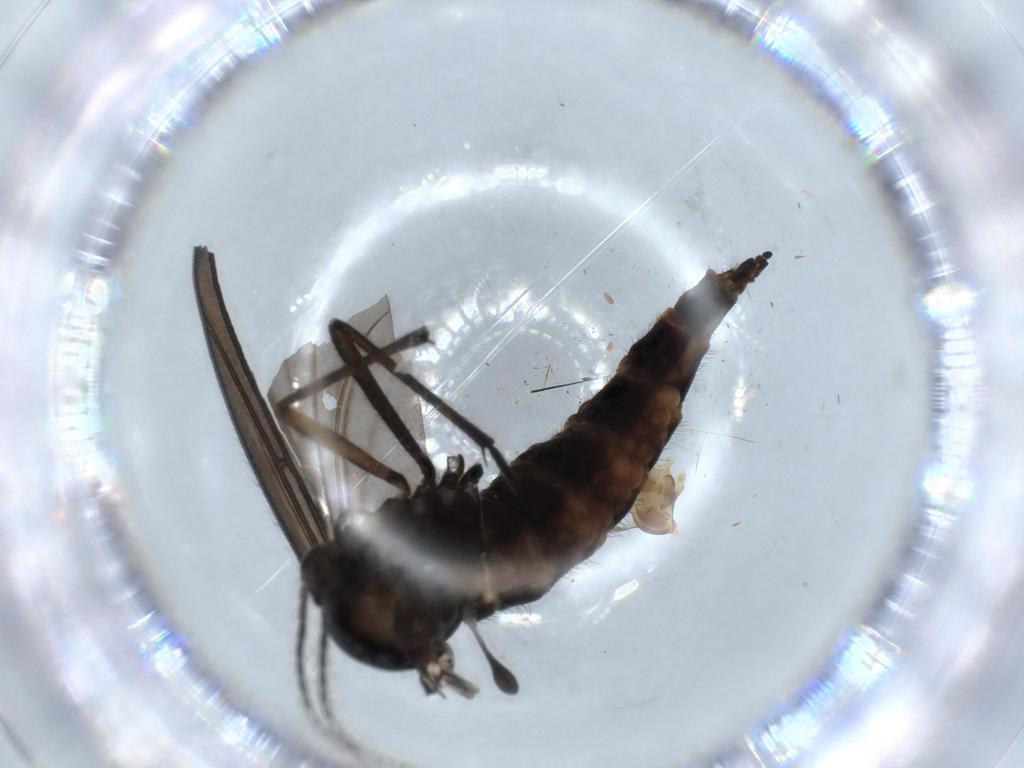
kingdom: Animalia
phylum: Arthropoda
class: Insecta
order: Diptera
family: Sciaridae
